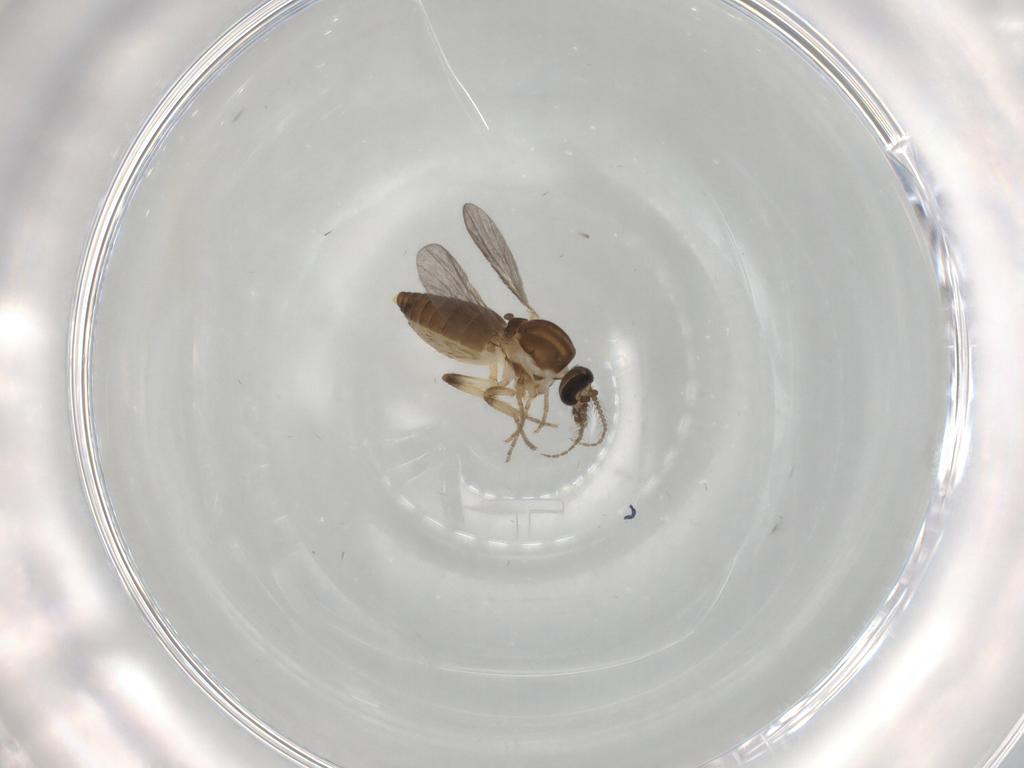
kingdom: Animalia
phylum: Arthropoda
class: Insecta
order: Diptera
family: Ceratopogonidae
